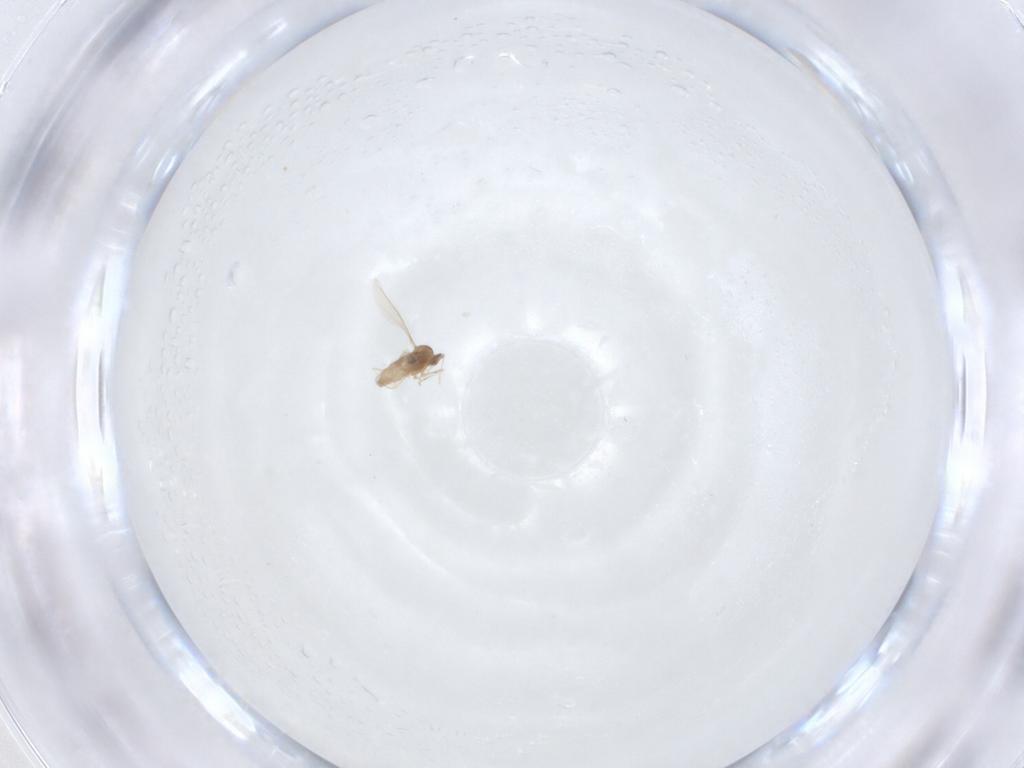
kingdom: Animalia
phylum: Arthropoda
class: Insecta
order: Diptera
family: Cecidomyiidae
